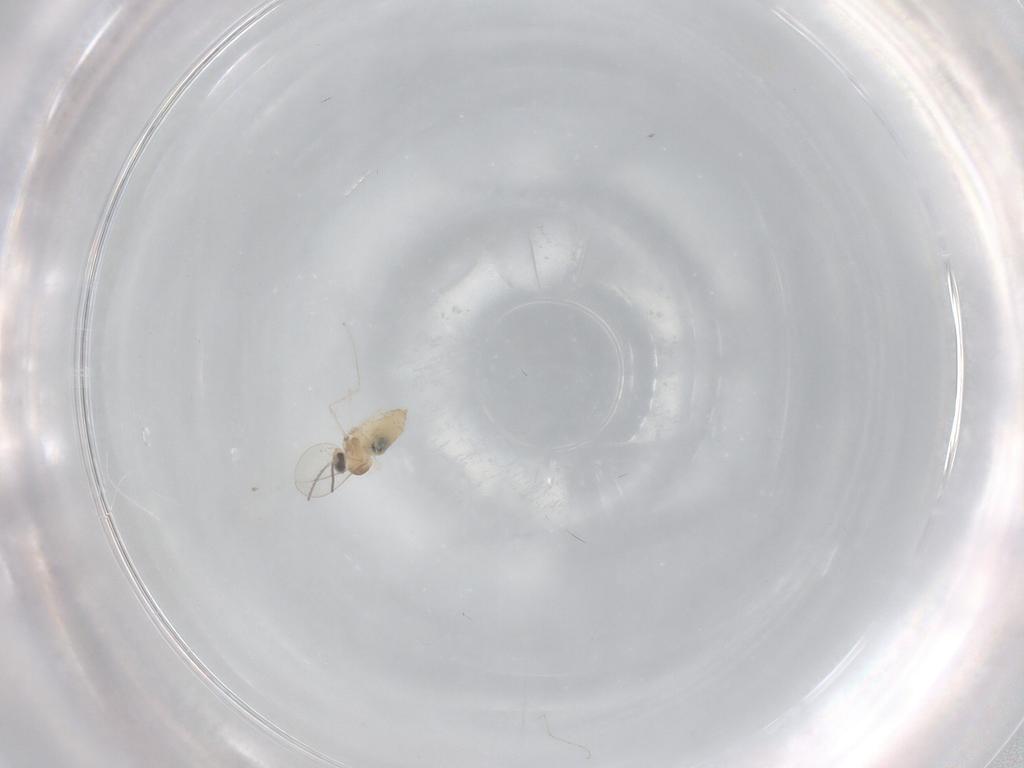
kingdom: Animalia
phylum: Arthropoda
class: Insecta
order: Diptera
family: Cecidomyiidae
